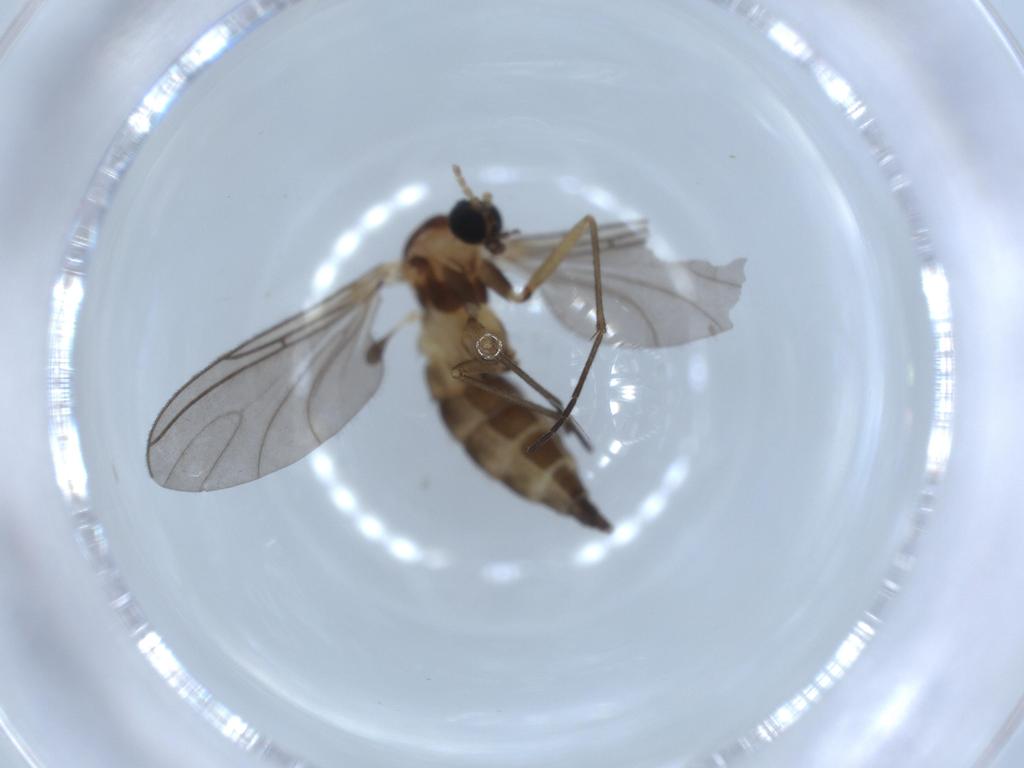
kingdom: Animalia
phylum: Arthropoda
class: Insecta
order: Diptera
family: Sciaridae
